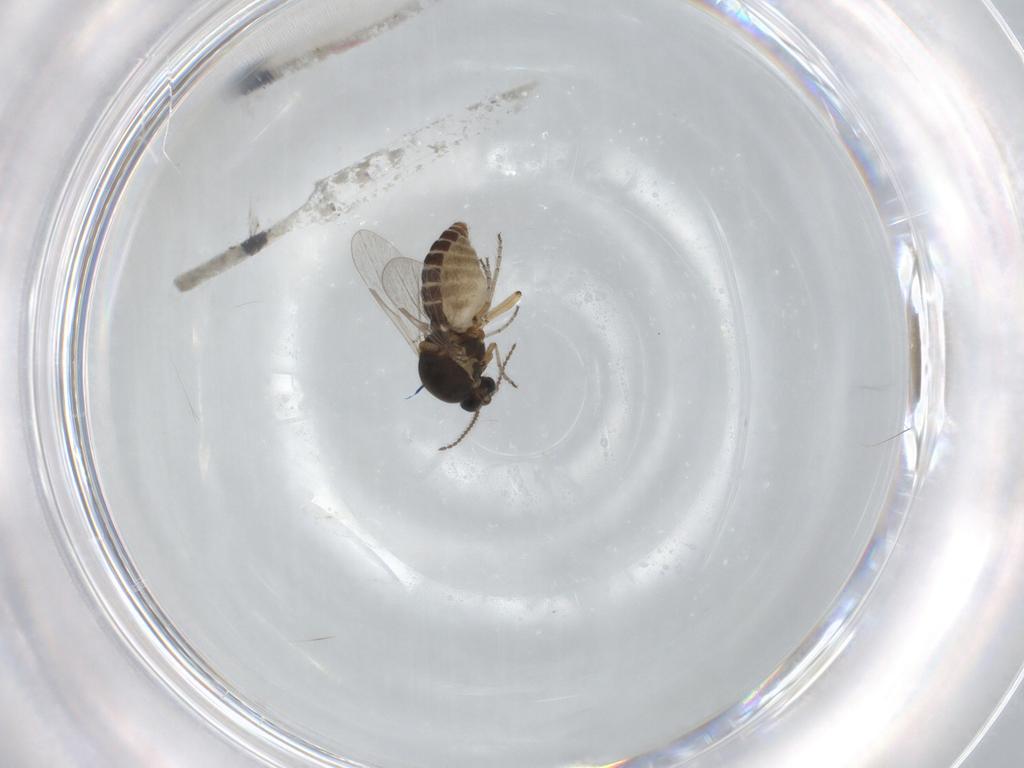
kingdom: Animalia
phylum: Arthropoda
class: Insecta
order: Diptera
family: Ceratopogonidae
